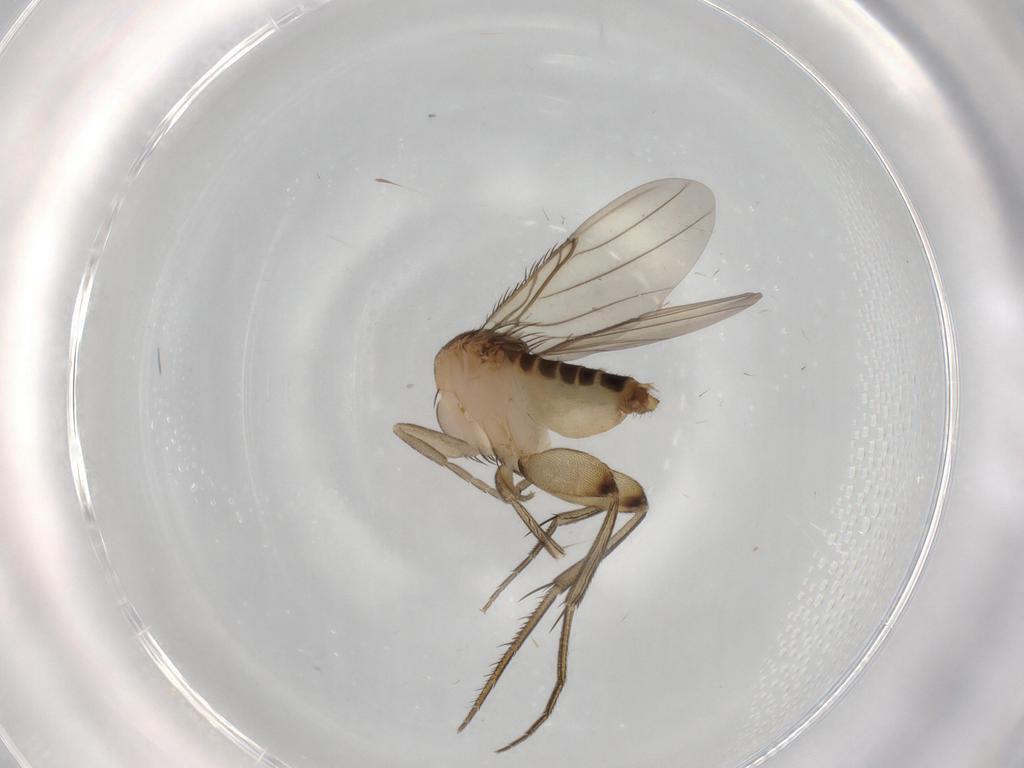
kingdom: Animalia
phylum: Arthropoda
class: Insecta
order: Diptera
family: Phoridae
